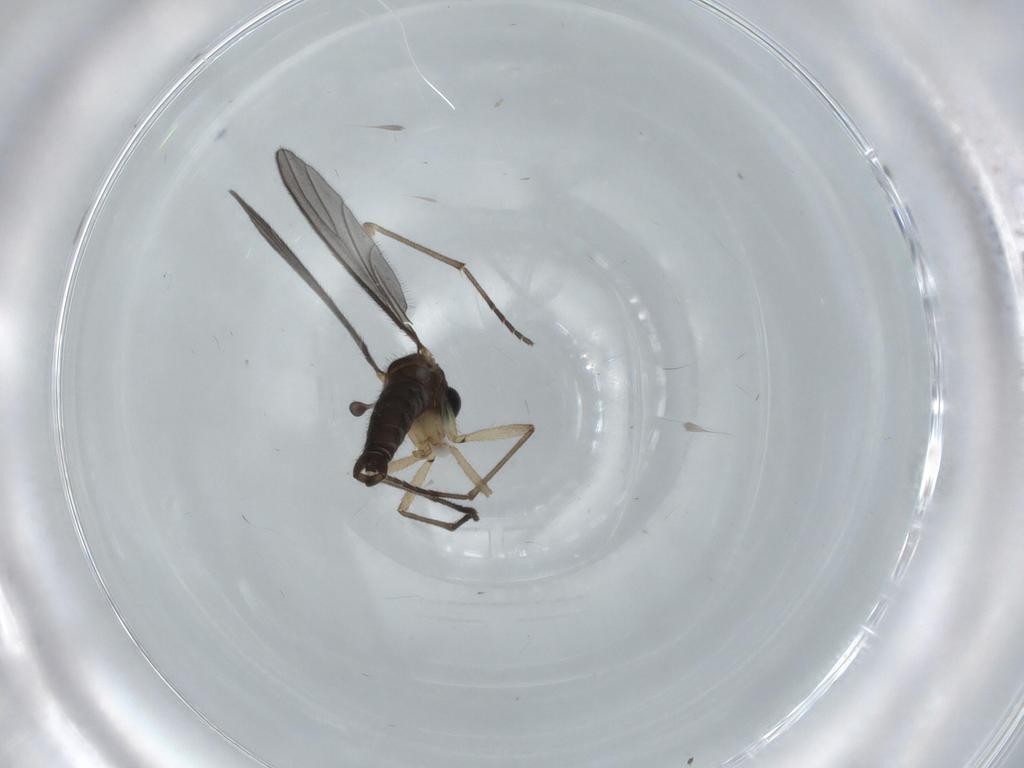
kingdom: Animalia
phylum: Arthropoda
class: Insecta
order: Diptera
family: Sciaridae
